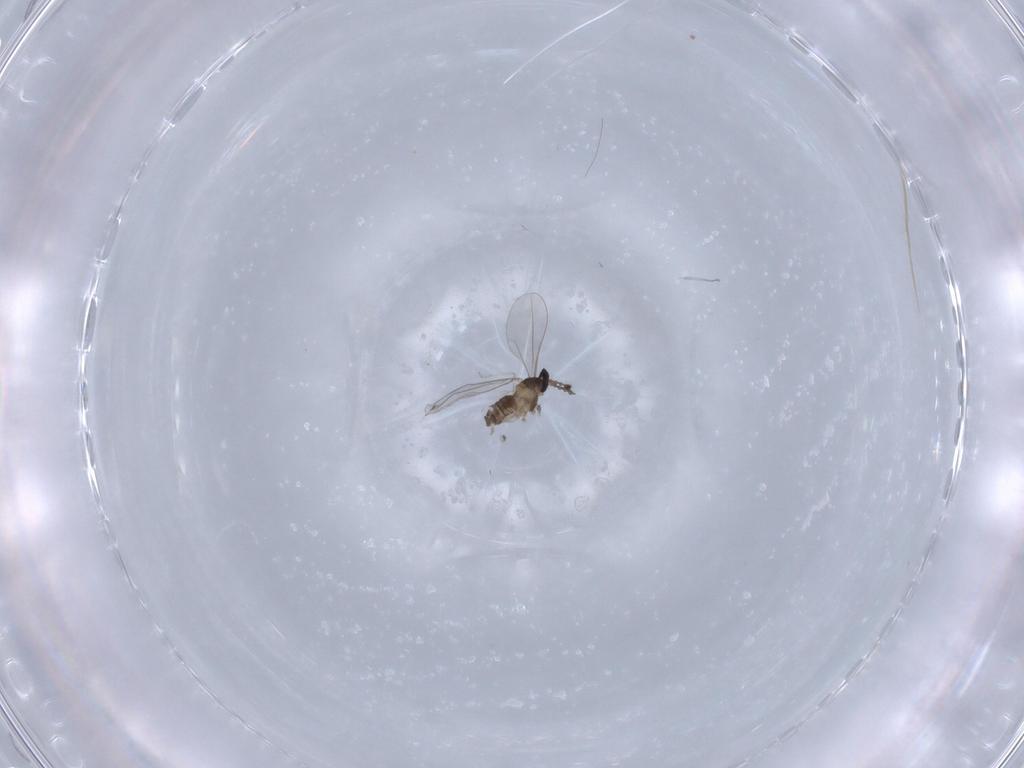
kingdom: Animalia
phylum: Arthropoda
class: Insecta
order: Diptera
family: Cecidomyiidae
